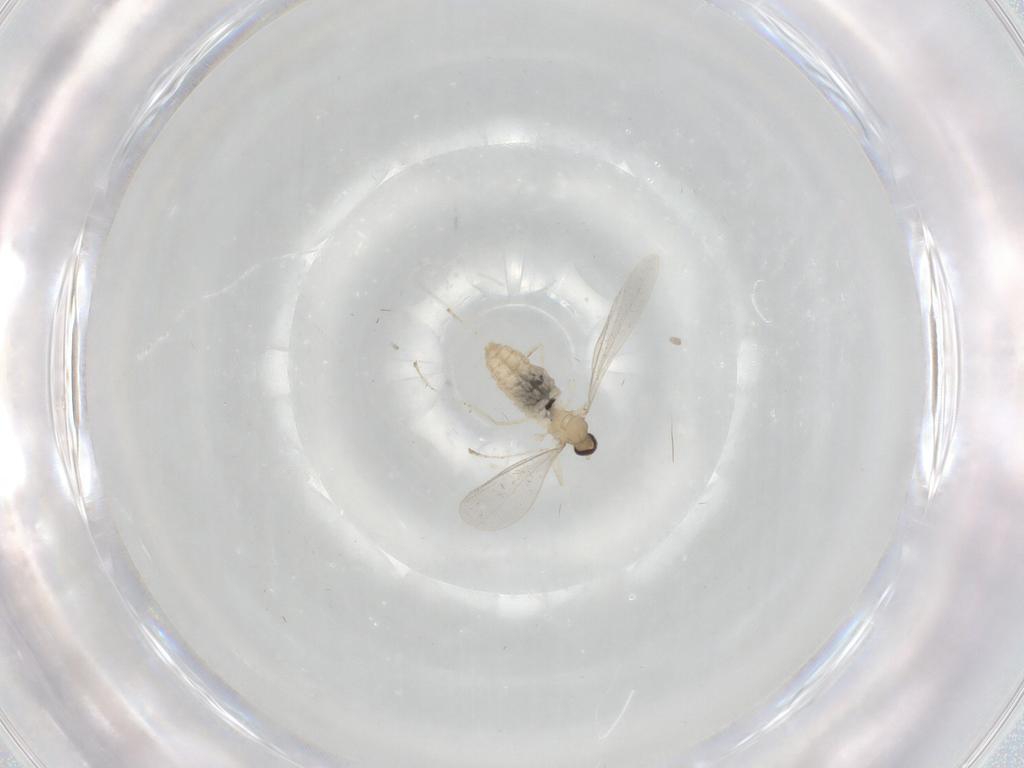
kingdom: Animalia
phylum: Arthropoda
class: Insecta
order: Diptera
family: Cecidomyiidae
